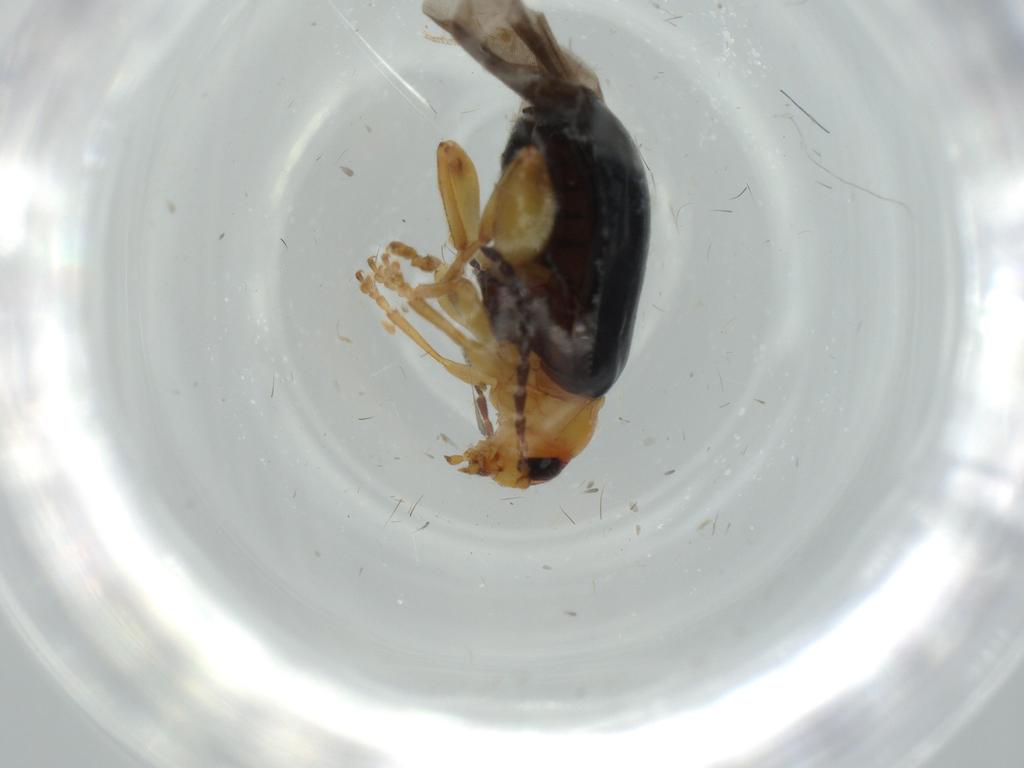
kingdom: Animalia
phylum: Arthropoda
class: Insecta
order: Coleoptera
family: Chrysomelidae
